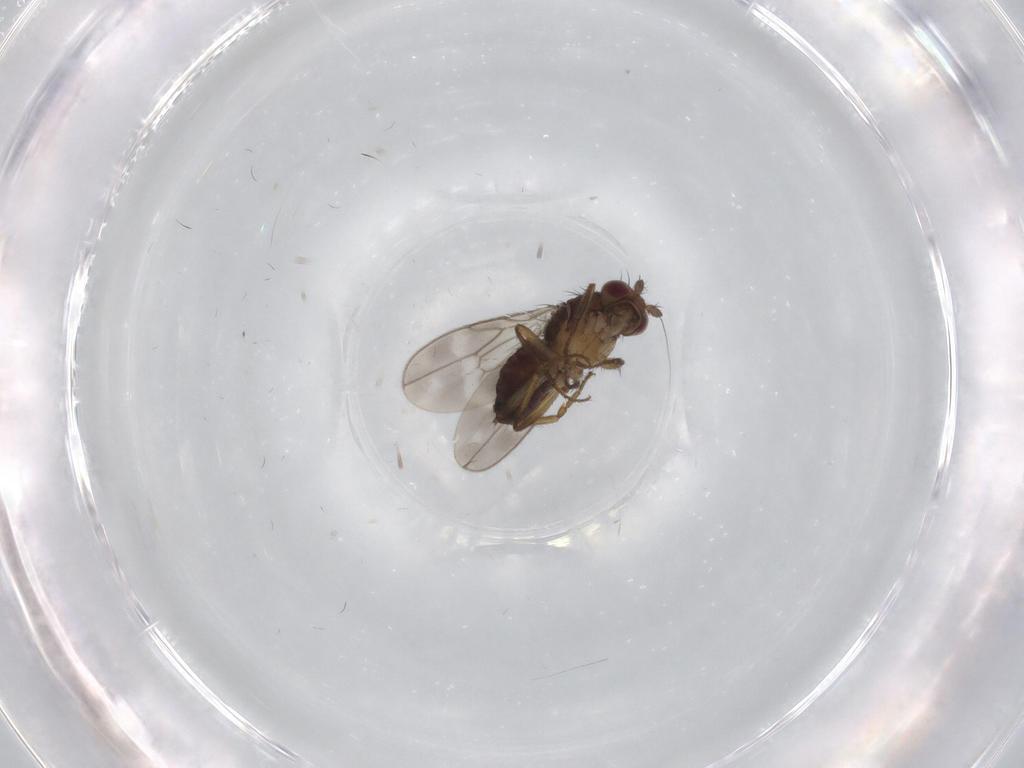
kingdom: Animalia
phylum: Arthropoda
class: Insecta
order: Diptera
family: Sphaeroceridae
